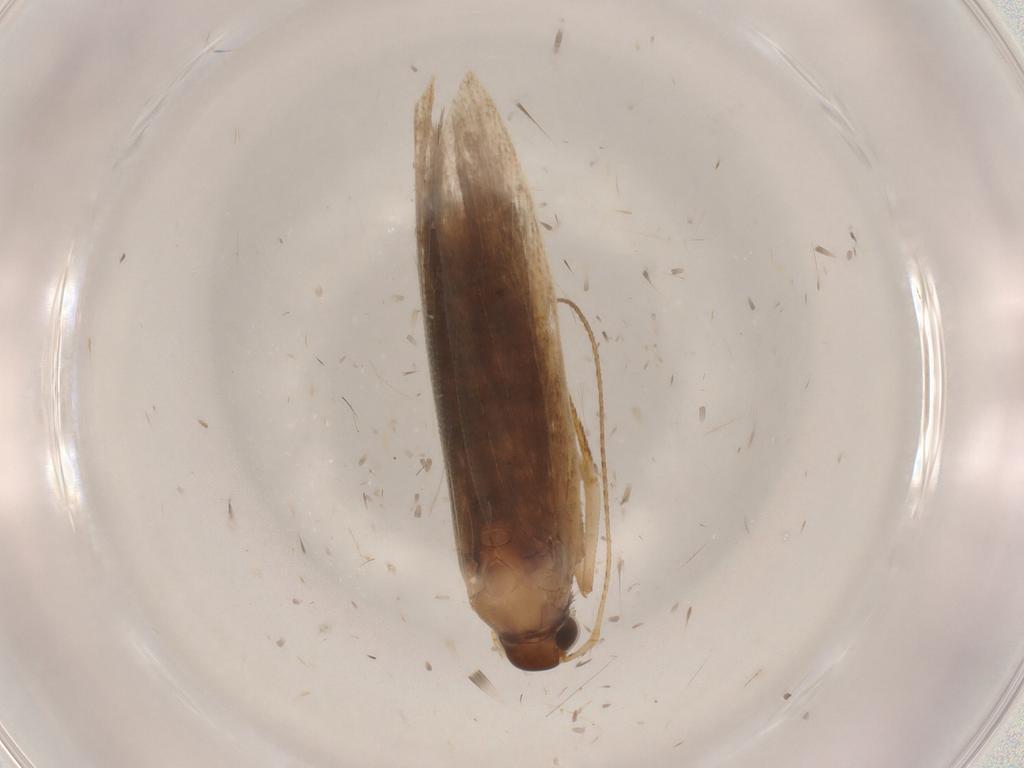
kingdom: Animalia
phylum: Arthropoda
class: Insecta
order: Lepidoptera
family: Gelechiidae
